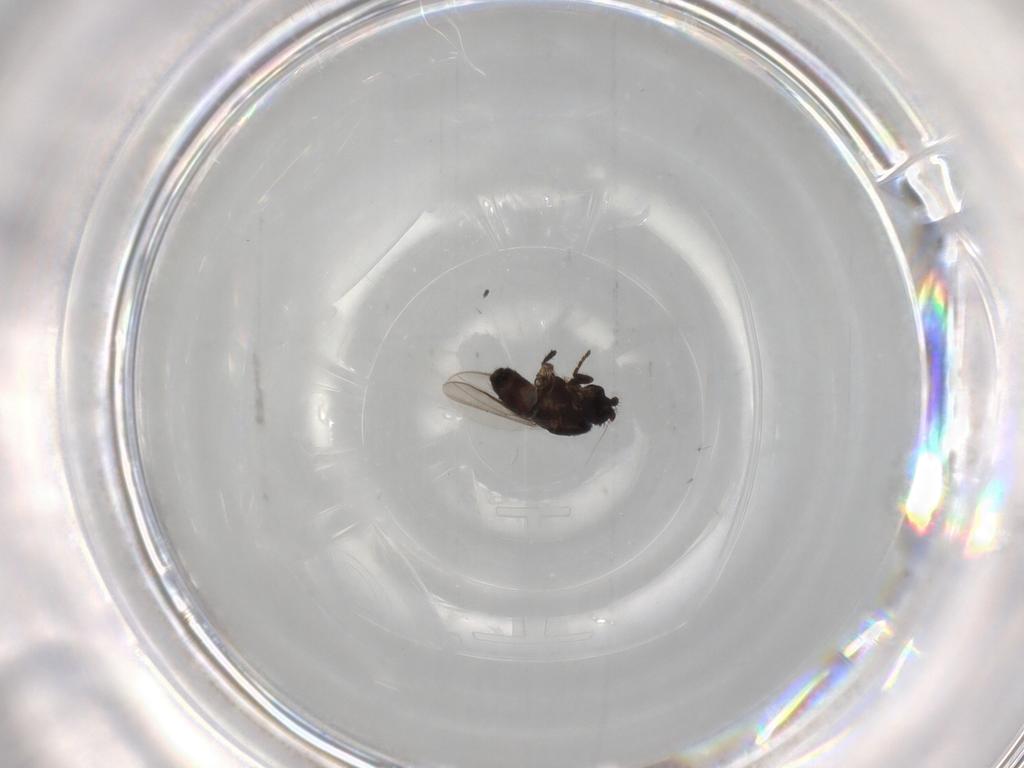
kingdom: Animalia
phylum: Arthropoda
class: Insecta
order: Diptera
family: Sphaeroceridae
